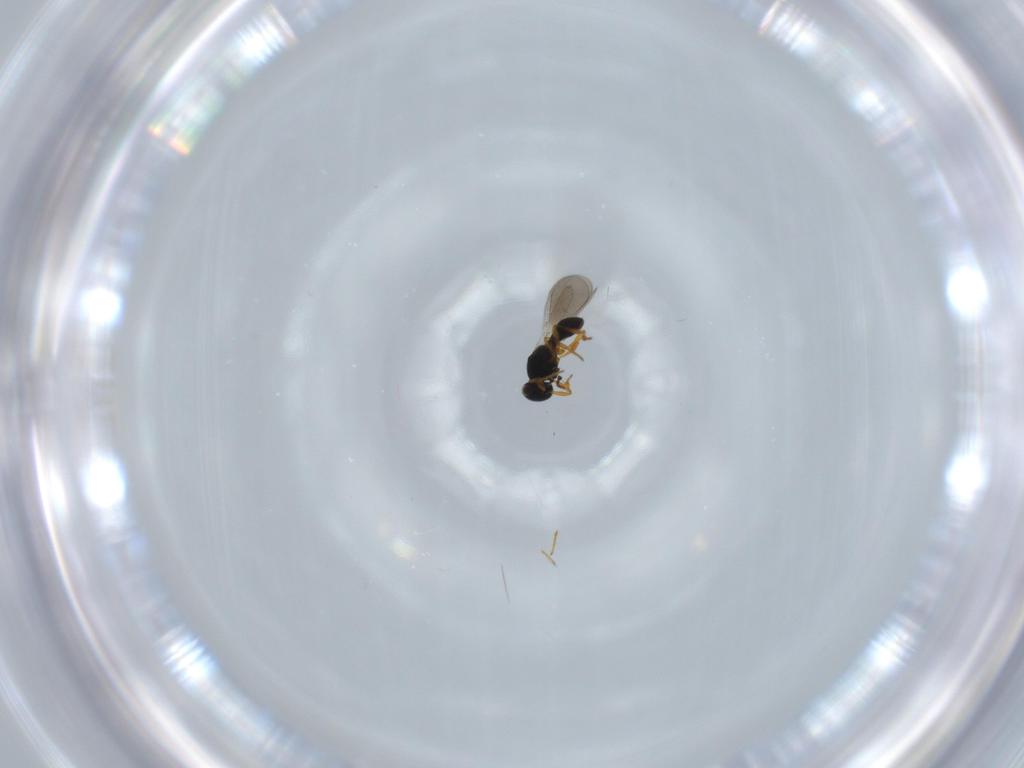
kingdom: Animalia
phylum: Arthropoda
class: Insecta
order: Hymenoptera
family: Platygastridae
